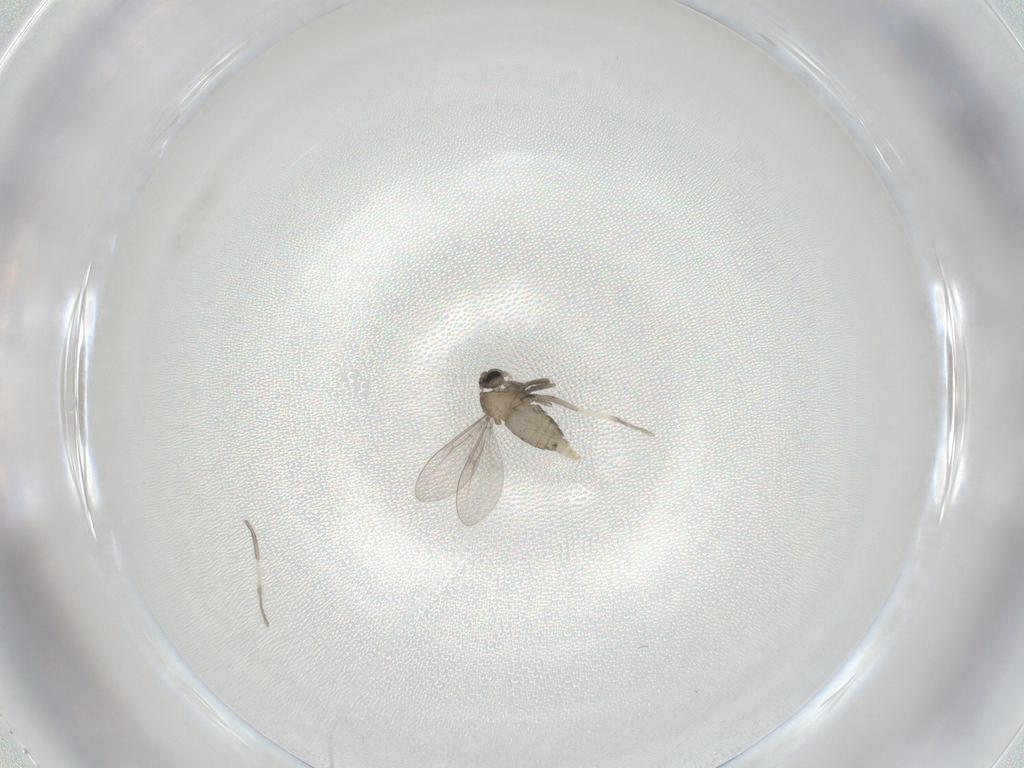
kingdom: Animalia
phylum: Arthropoda
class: Insecta
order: Diptera
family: Cecidomyiidae
